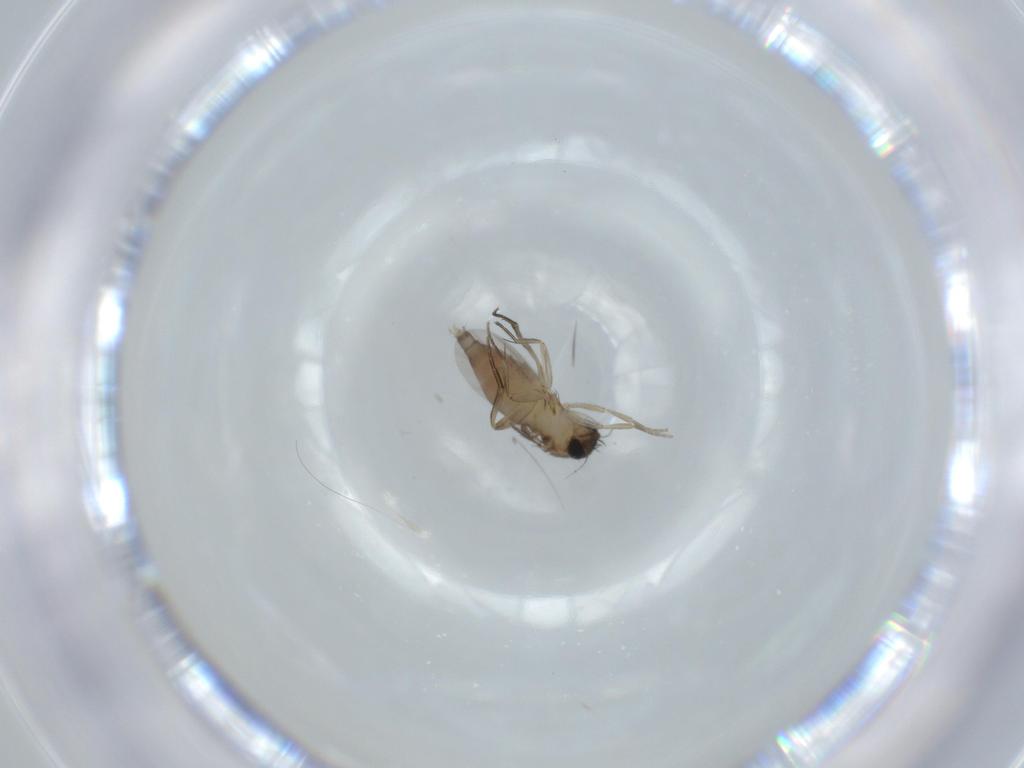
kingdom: Animalia
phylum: Arthropoda
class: Insecta
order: Diptera
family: Phoridae
